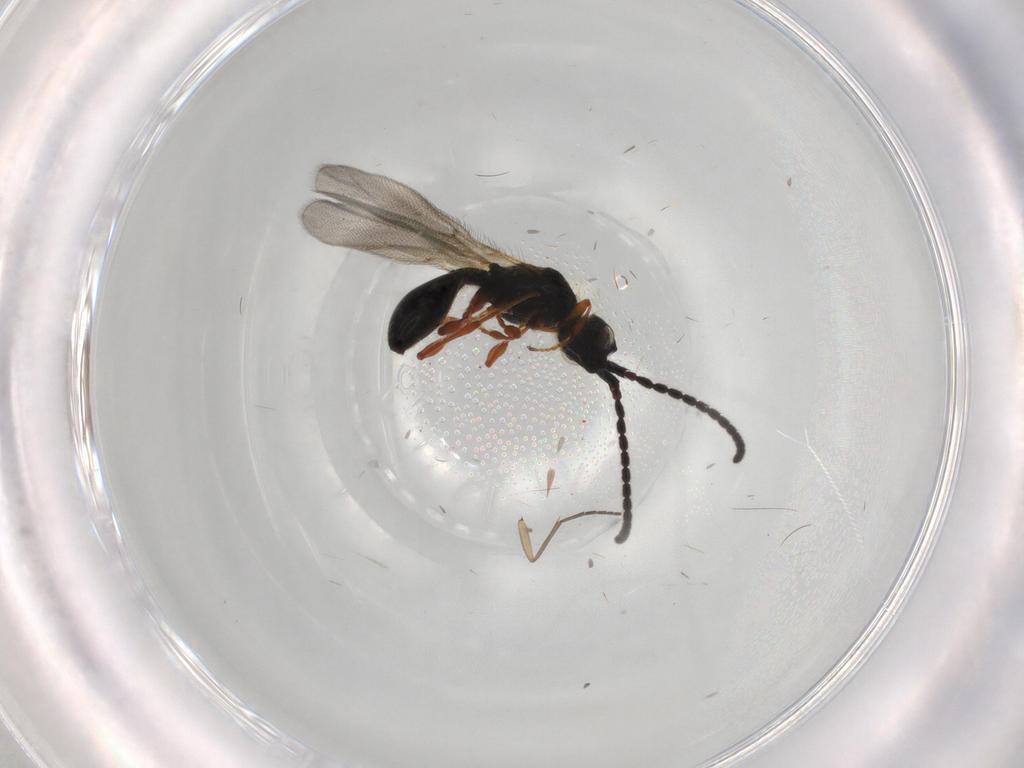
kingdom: Animalia
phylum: Arthropoda
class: Insecta
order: Hymenoptera
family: Diapriidae
